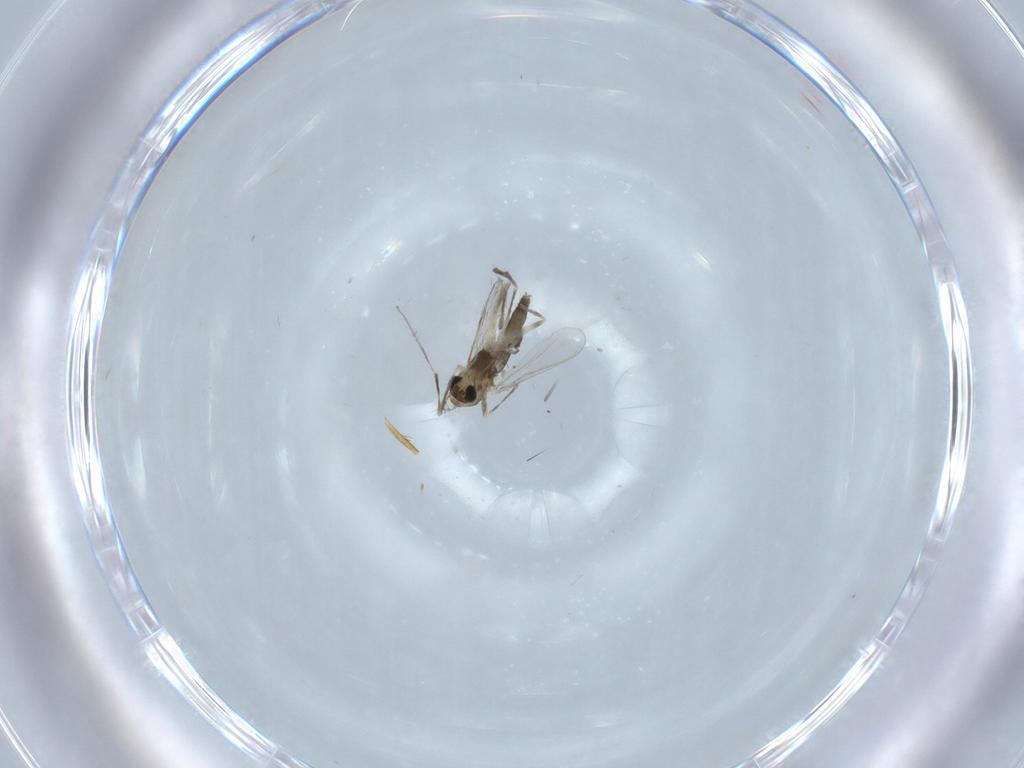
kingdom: Animalia
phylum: Arthropoda
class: Insecta
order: Diptera
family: Chironomidae
